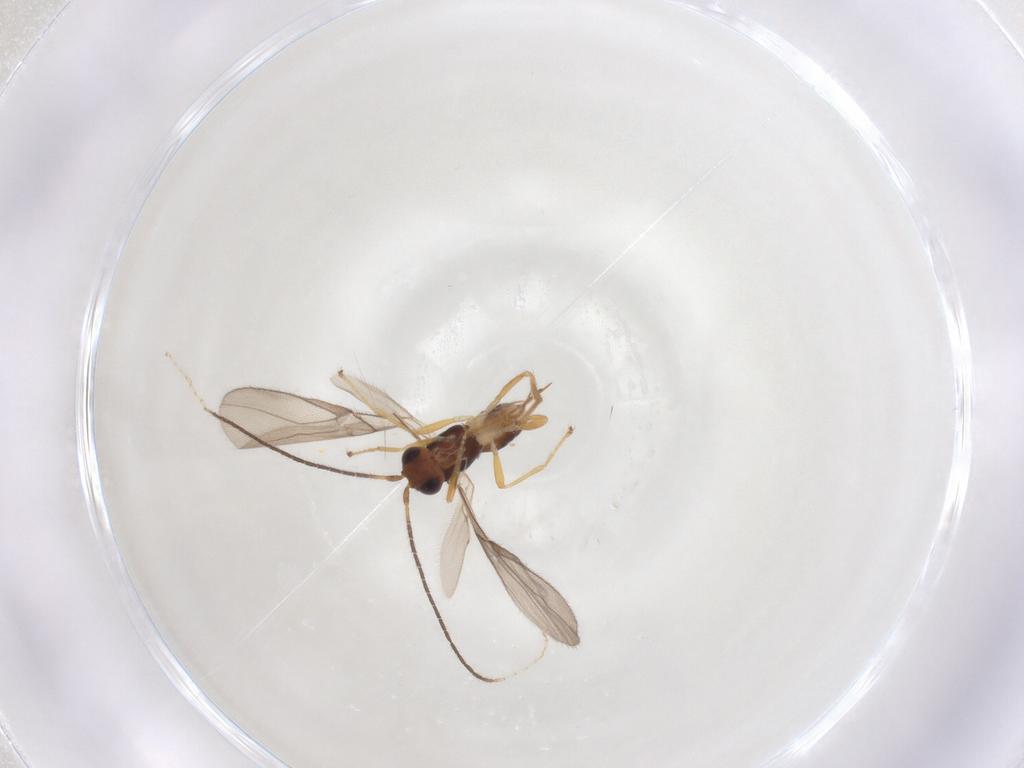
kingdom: Animalia
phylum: Arthropoda
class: Insecta
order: Hymenoptera
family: Braconidae
